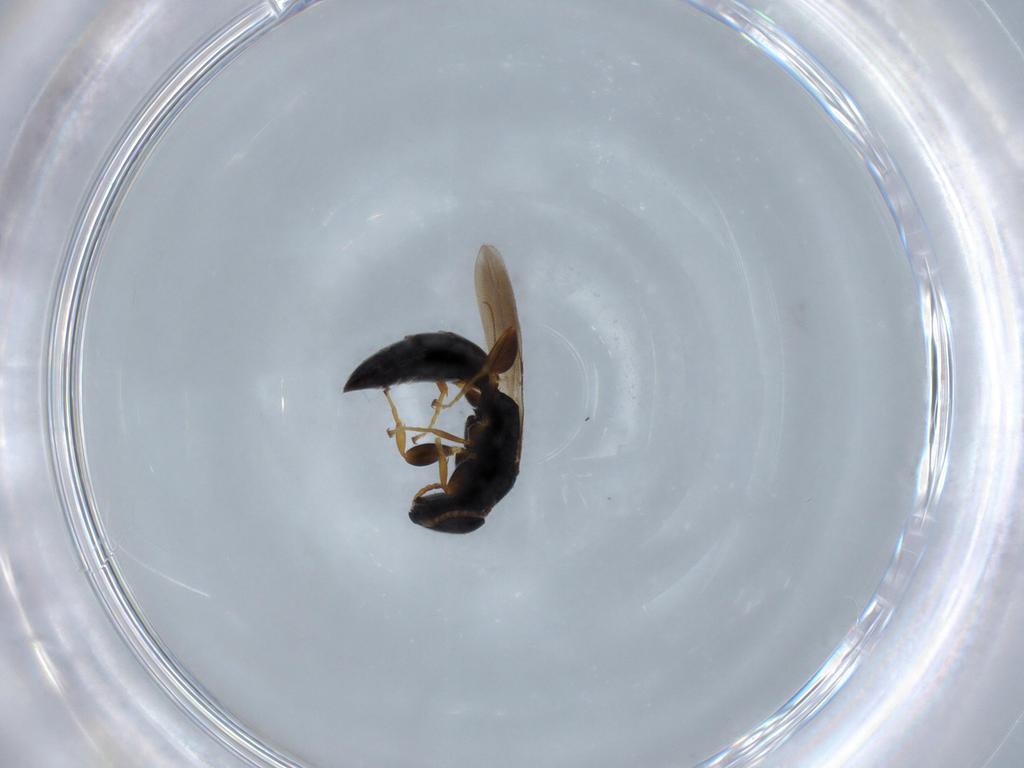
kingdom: Animalia
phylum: Arthropoda
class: Insecta
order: Hymenoptera
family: Bethylidae
